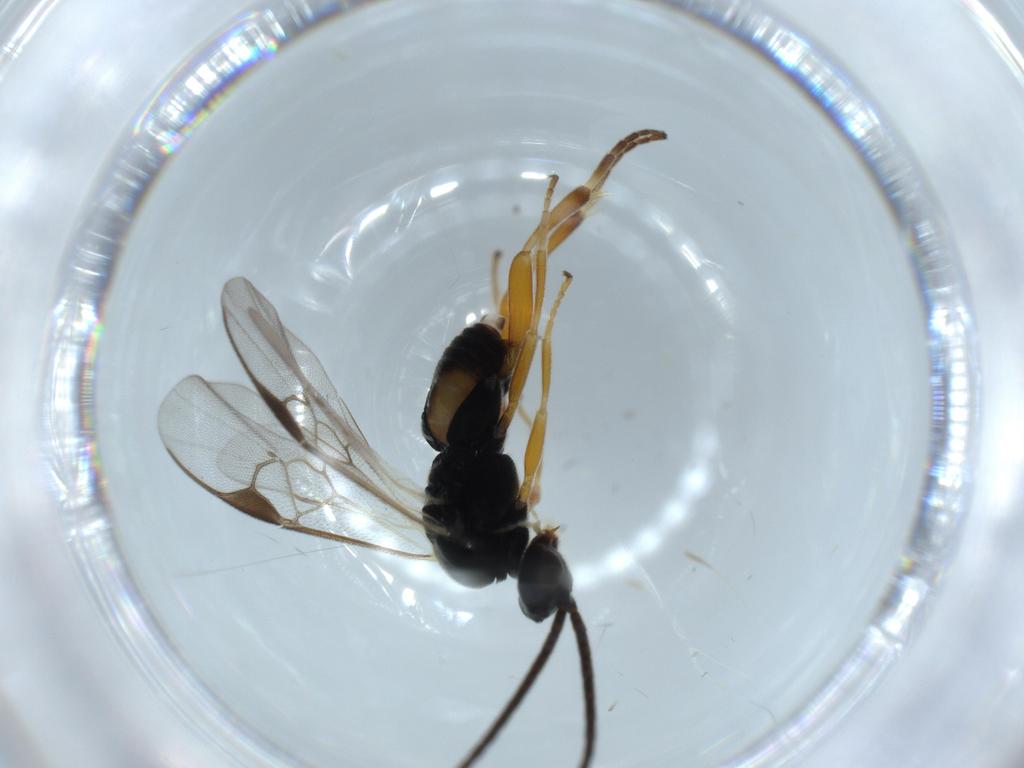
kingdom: Animalia
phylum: Arthropoda
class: Insecta
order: Hymenoptera
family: Braconidae
